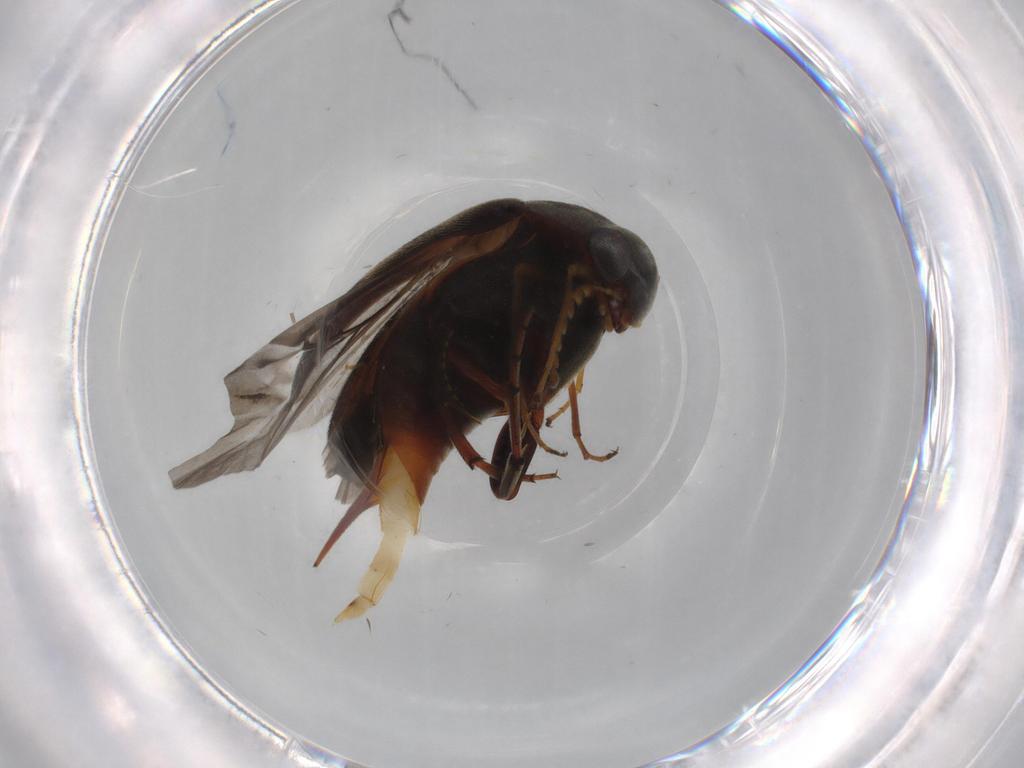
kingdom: Animalia
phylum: Arthropoda
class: Insecta
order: Coleoptera
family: Mordellidae
